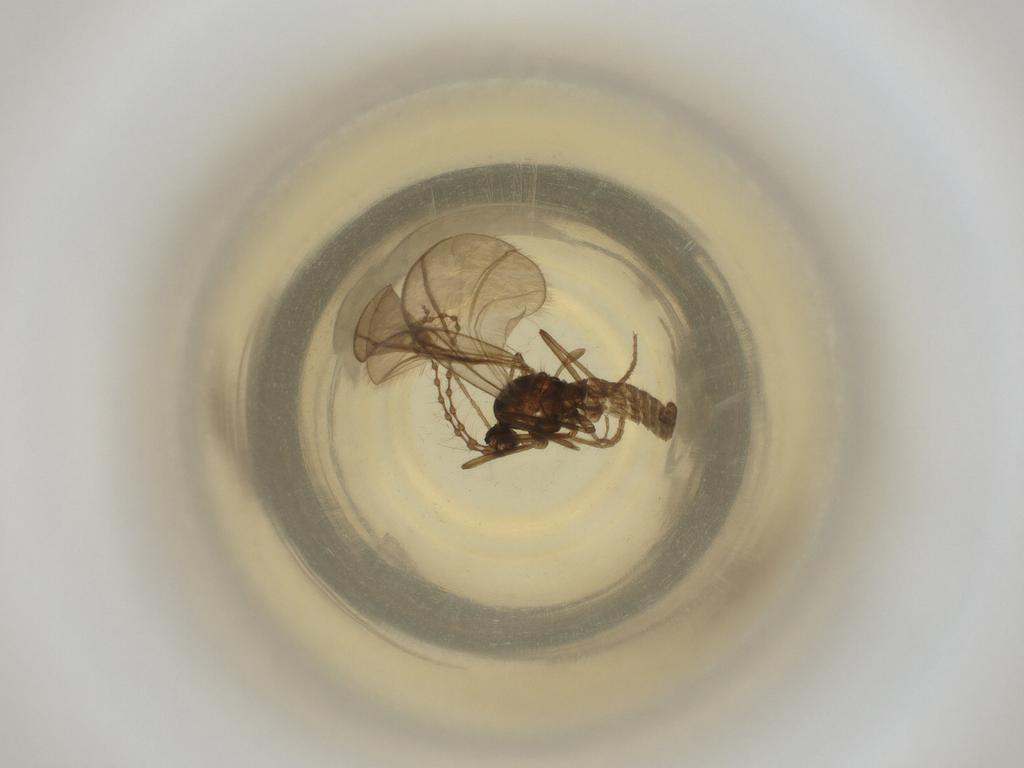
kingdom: Animalia
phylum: Arthropoda
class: Insecta
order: Diptera
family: Cecidomyiidae
